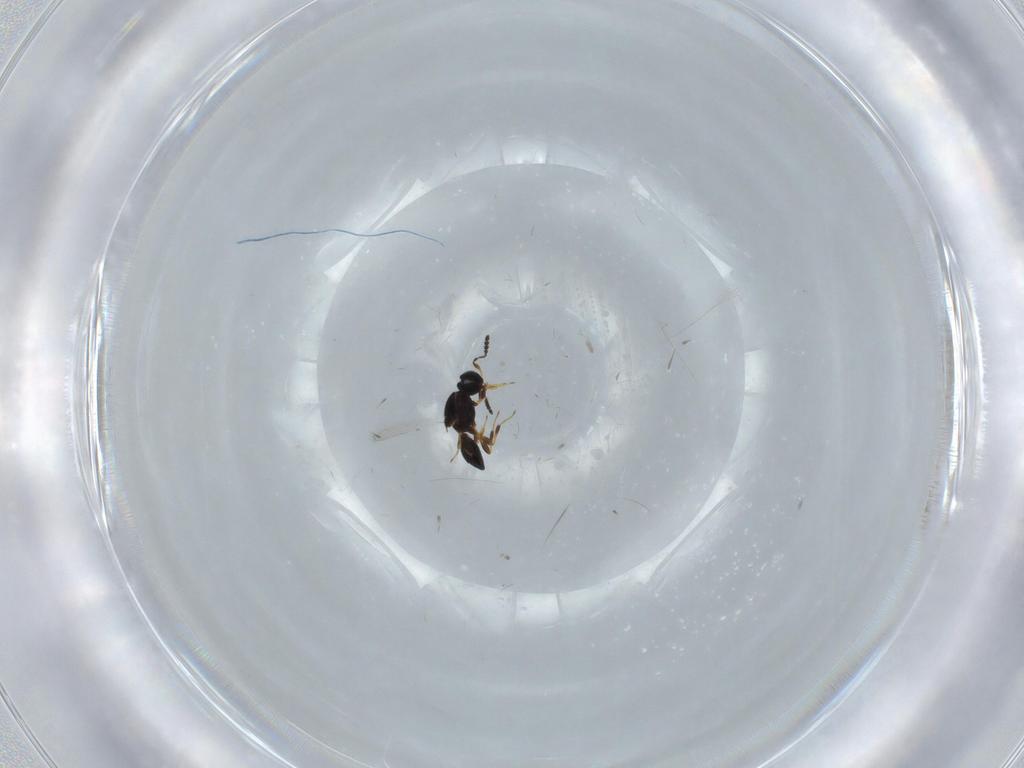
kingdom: Animalia
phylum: Arthropoda
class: Insecta
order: Hymenoptera
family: Platygastridae
